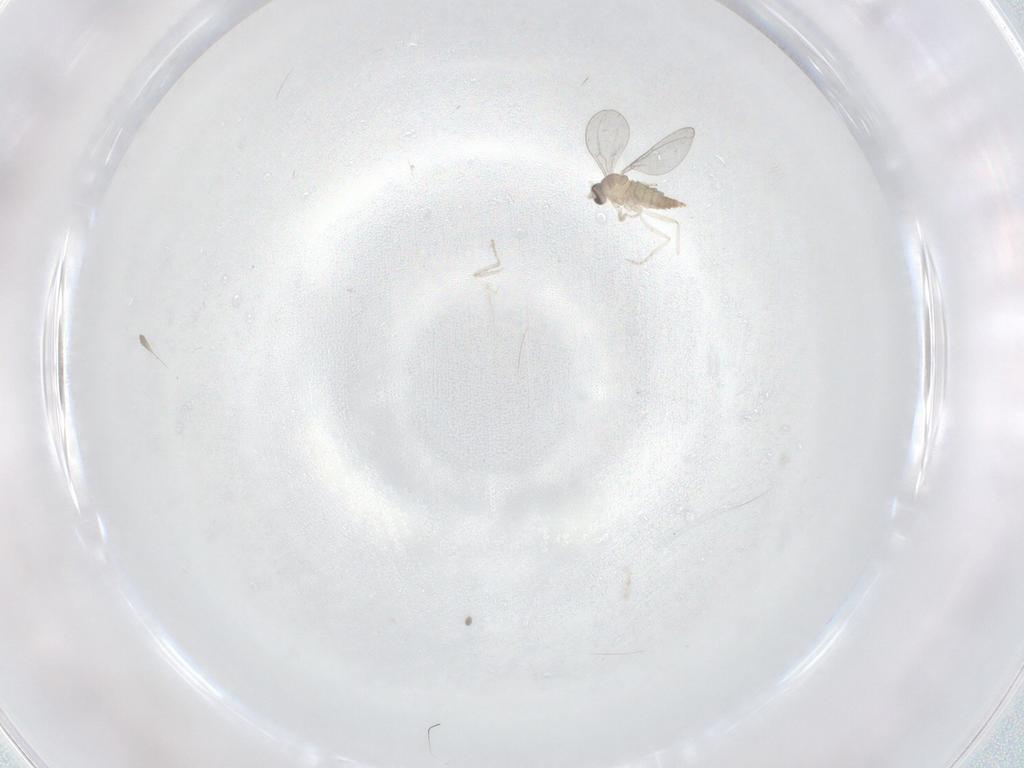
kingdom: Animalia
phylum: Arthropoda
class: Insecta
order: Diptera
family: Cecidomyiidae
